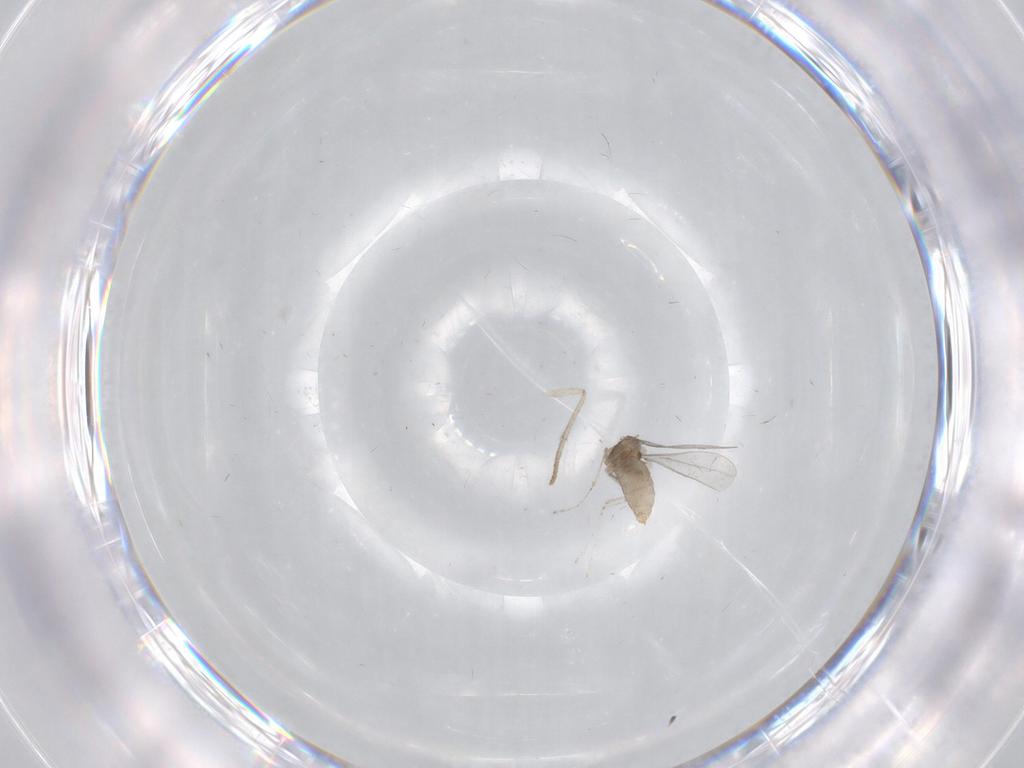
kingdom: Animalia
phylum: Arthropoda
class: Insecta
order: Diptera
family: Cecidomyiidae
